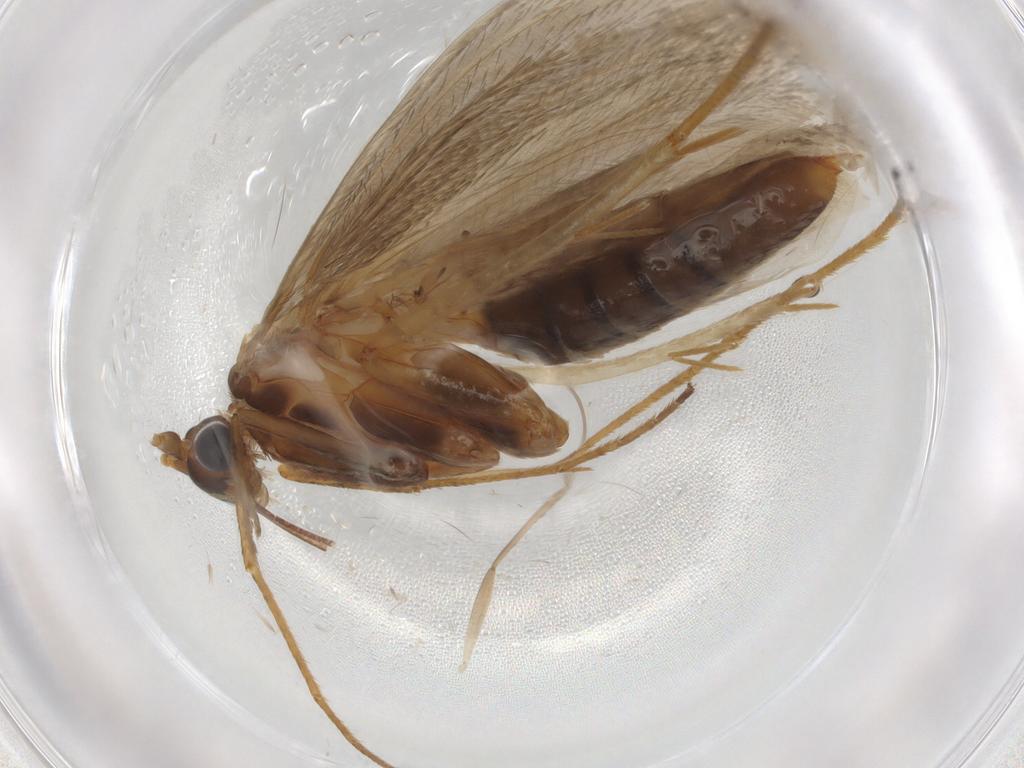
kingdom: Animalia
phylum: Arthropoda
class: Insecta
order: Lepidoptera
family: Adelidae
